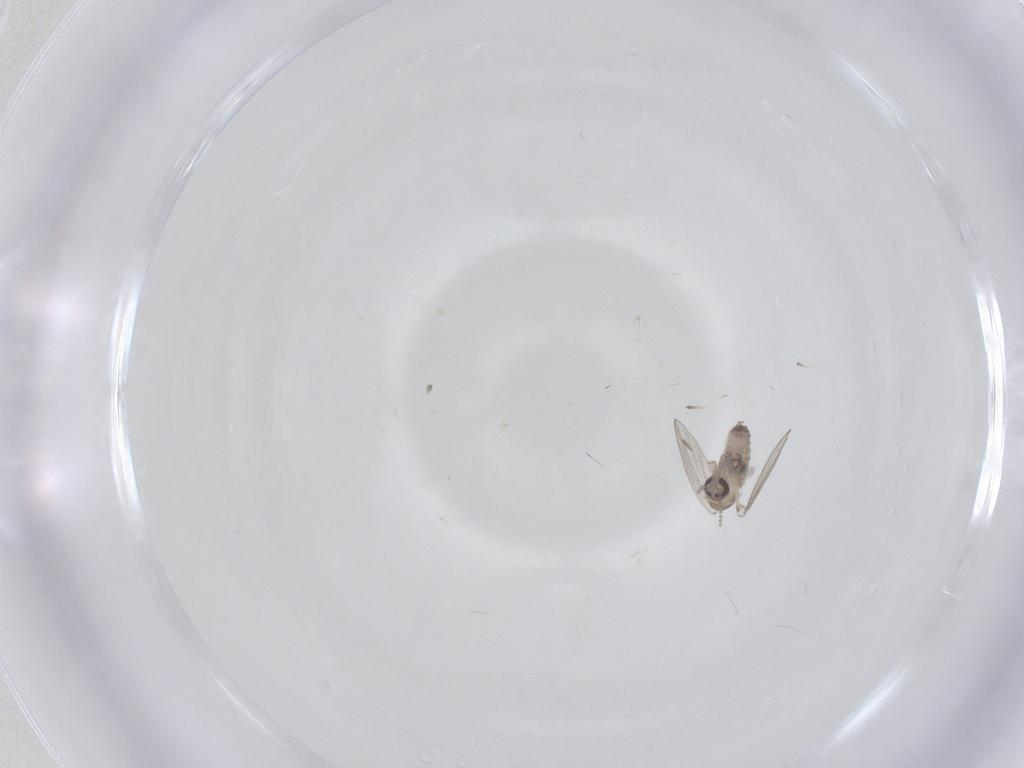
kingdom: Animalia
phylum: Arthropoda
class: Insecta
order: Diptera
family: Psychodidae
